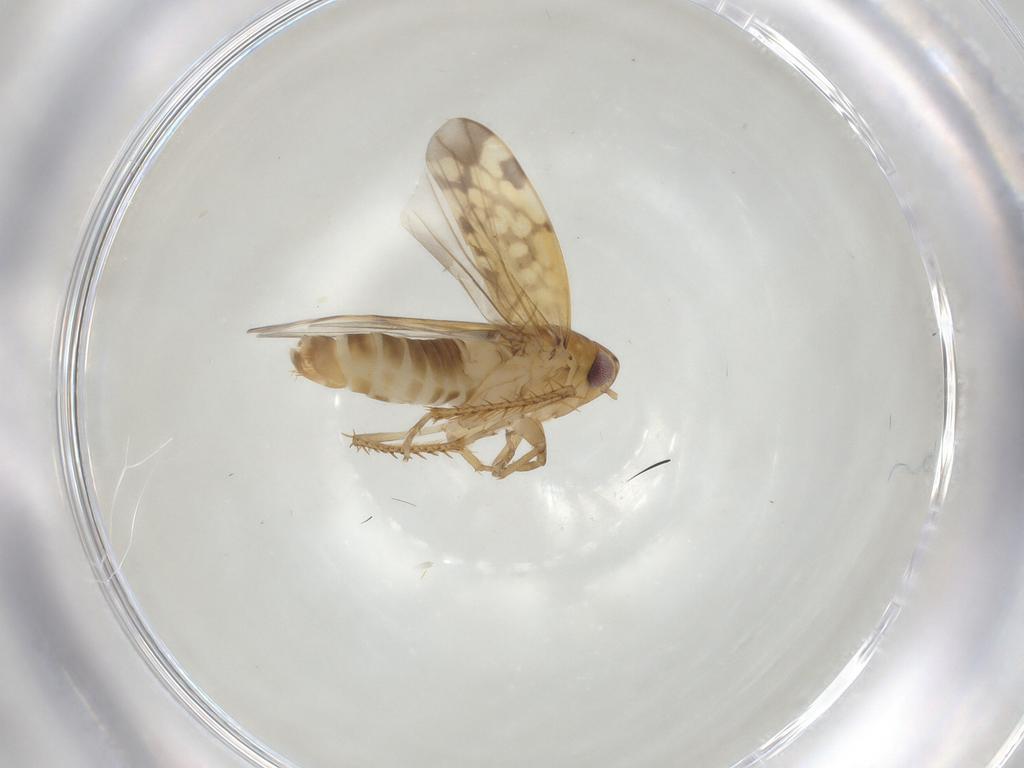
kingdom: Animalia
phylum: Arthropoda
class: Insecta
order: Hemiptera
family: Cicadellidae
